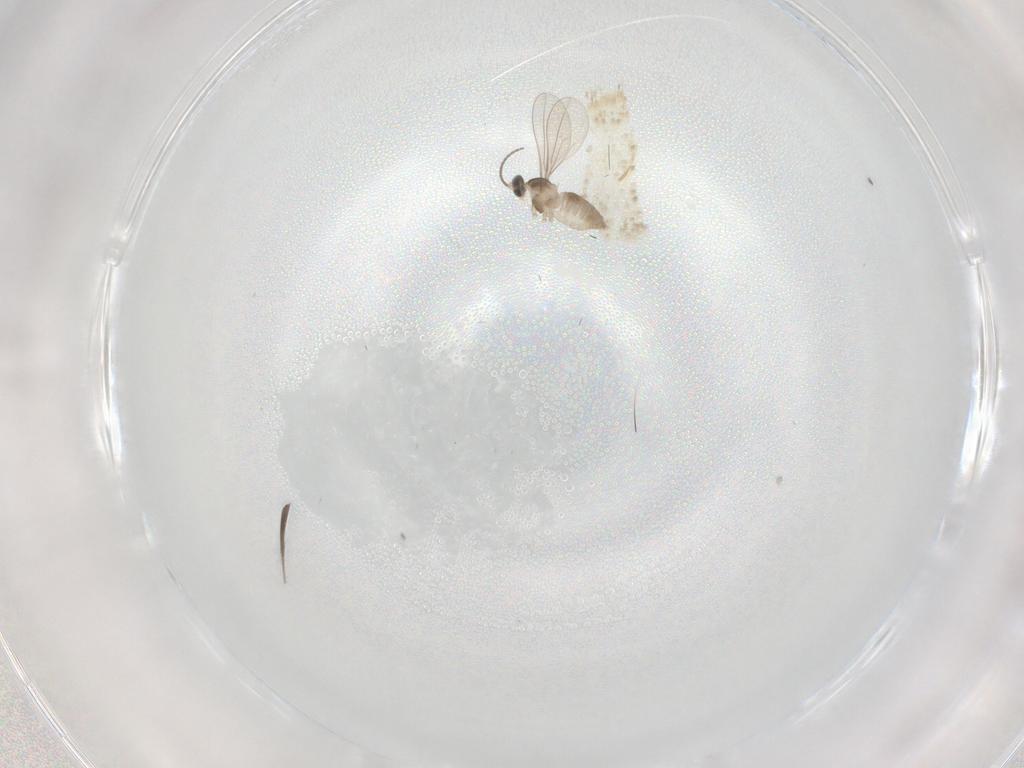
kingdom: Animalia
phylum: Arthropoda
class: Insecta
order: Diptera
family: Cecidomyiidae
